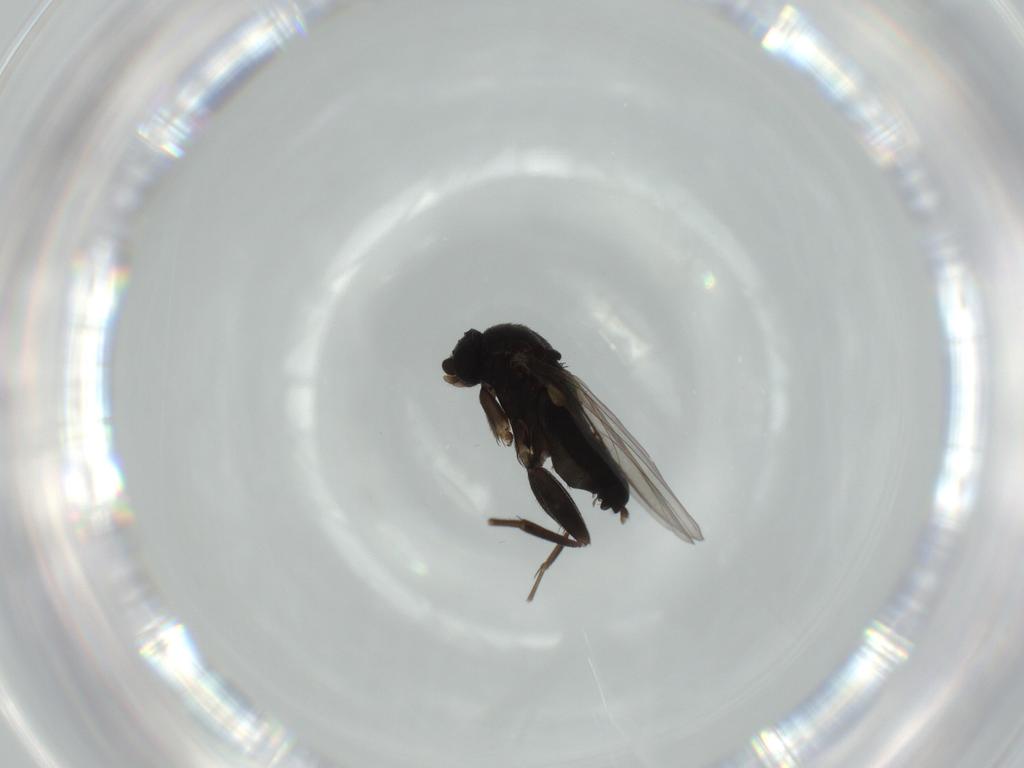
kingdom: Animalia
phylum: Arthropoda
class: Insecta
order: Diptera
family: Phoridae
